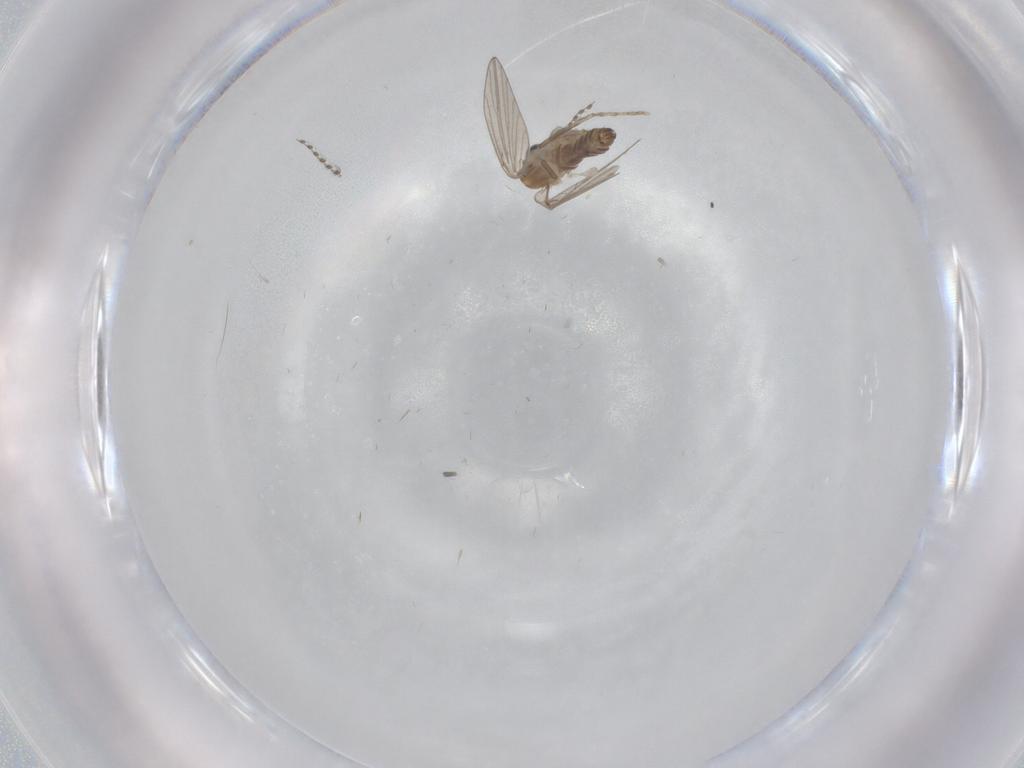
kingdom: Animalia
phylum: Arthropoda
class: Insecta
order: Diptera
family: Psychodidae
